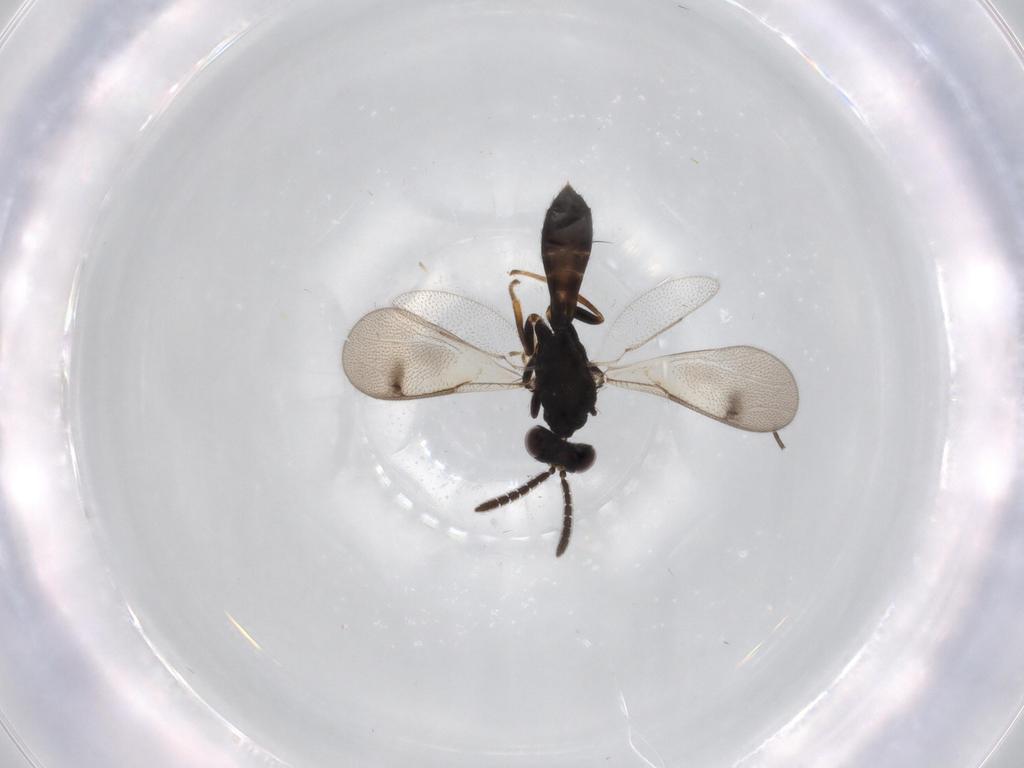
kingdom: Animalia
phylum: Arthropoda
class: Insecta
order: Hymenoptera
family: Pteromalidae
